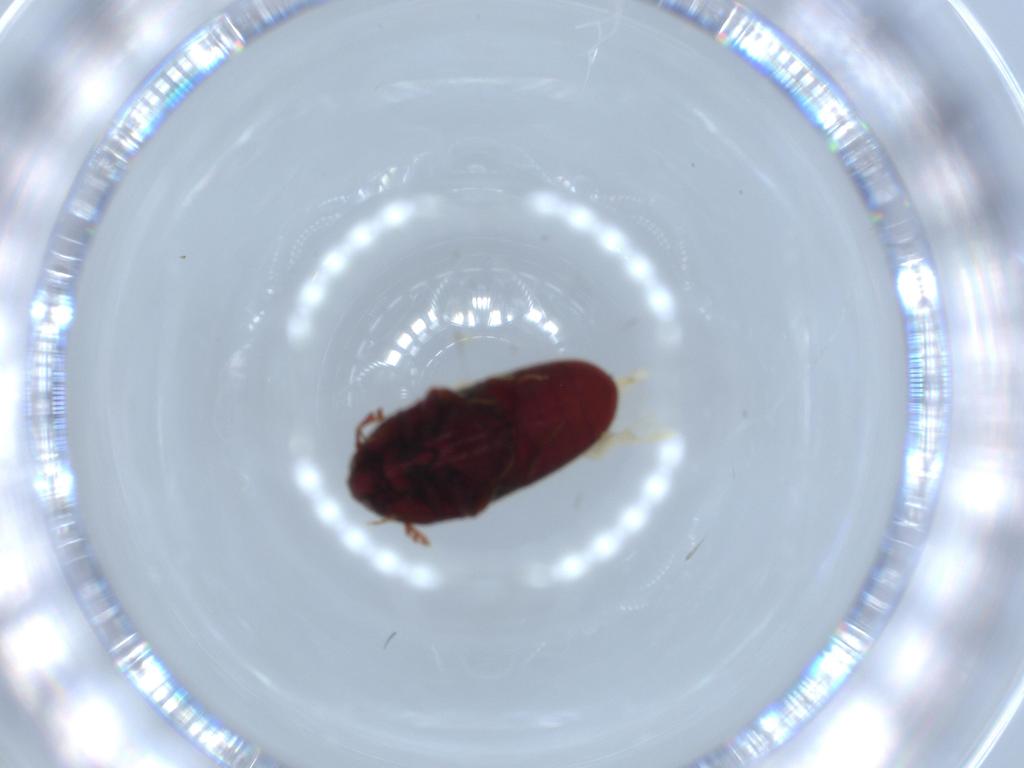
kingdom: Animalia
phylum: Arthropoda
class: Insecta
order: Coleoptera
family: Throscidae
